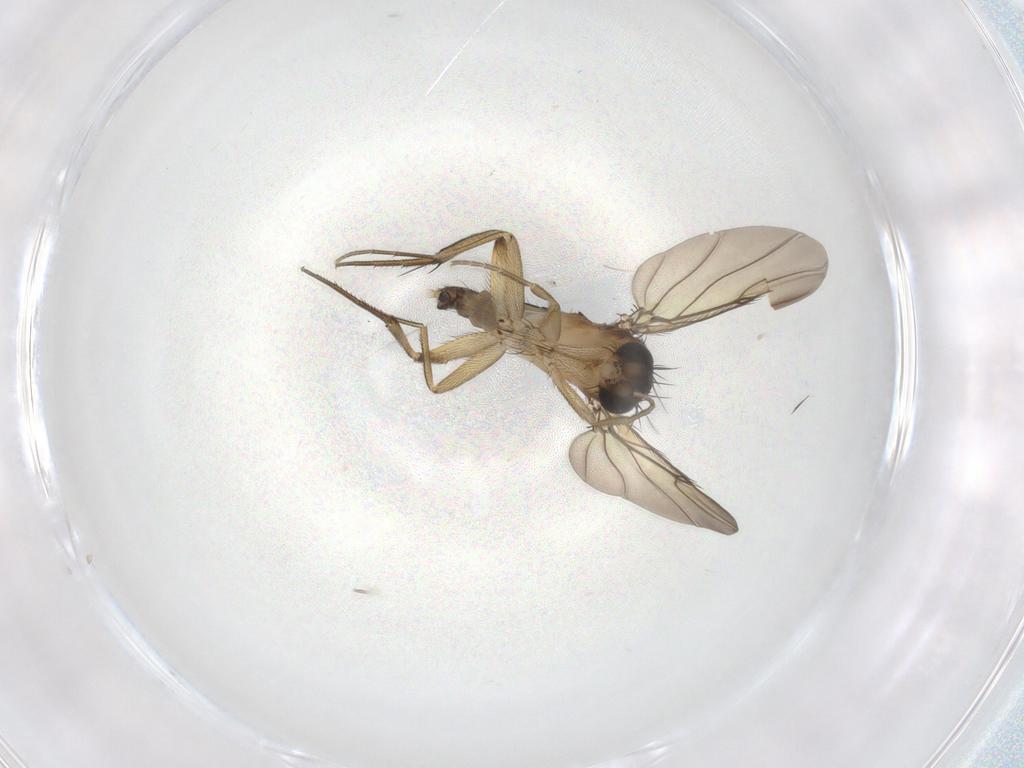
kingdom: Animalia
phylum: Arthropoda
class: Insecta
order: Diptera
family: Phoridae
